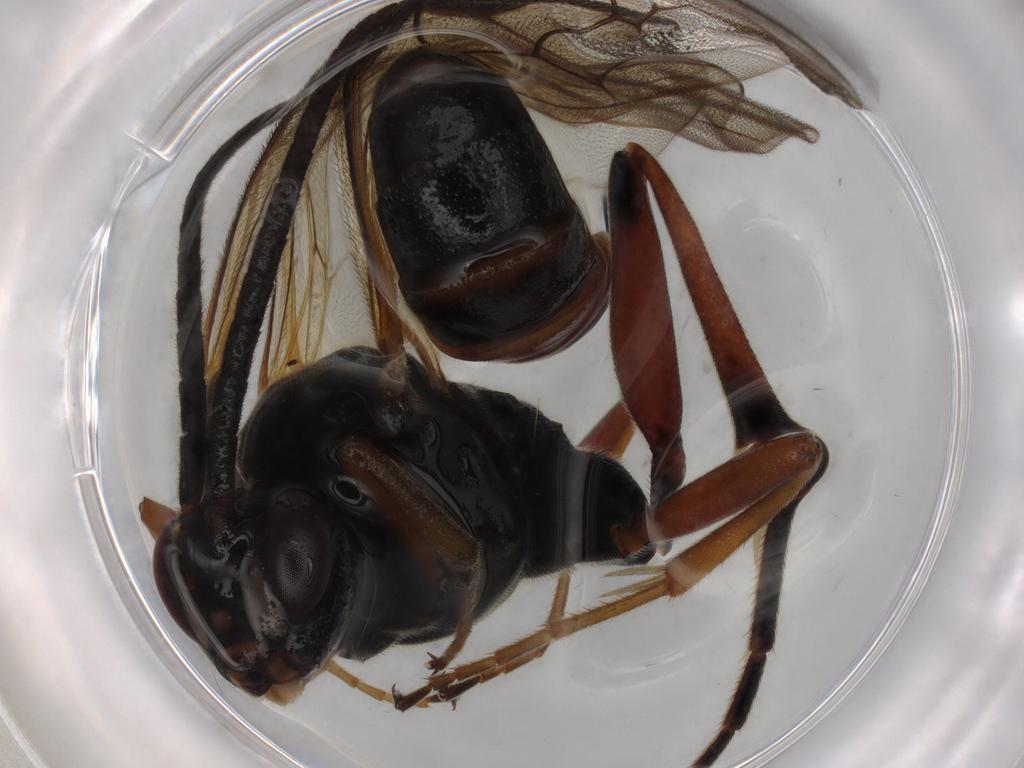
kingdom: Animalia
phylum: Arthropoda
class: Insecta
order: Hymenoptera
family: Ichneumonidae
